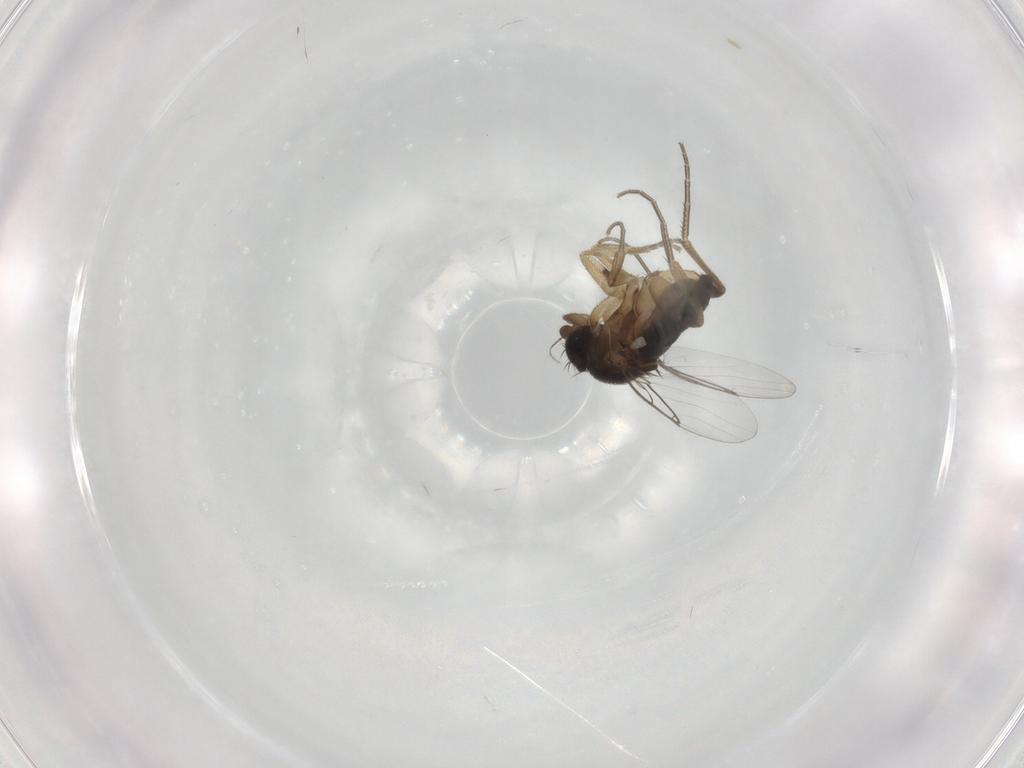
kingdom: Animalia
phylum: Arthropoda
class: Insecta
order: Diptera
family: Phoridae
